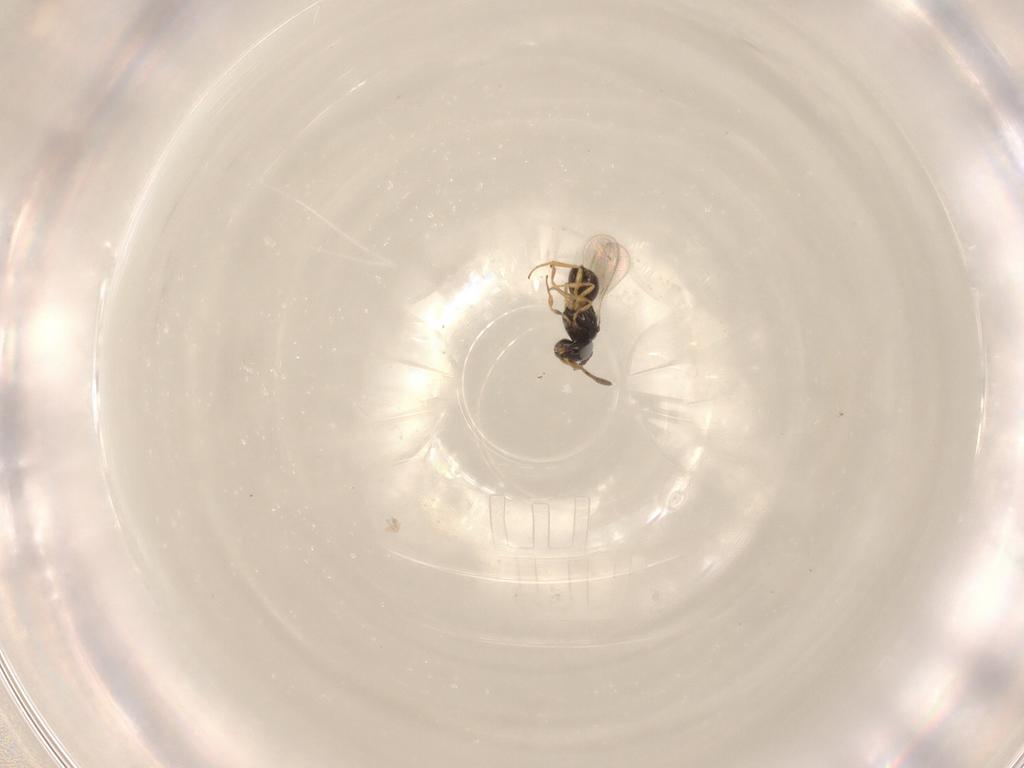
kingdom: Animalia
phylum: Arthropoda
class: Insecta
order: Hymenoptera
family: Scelionidae
